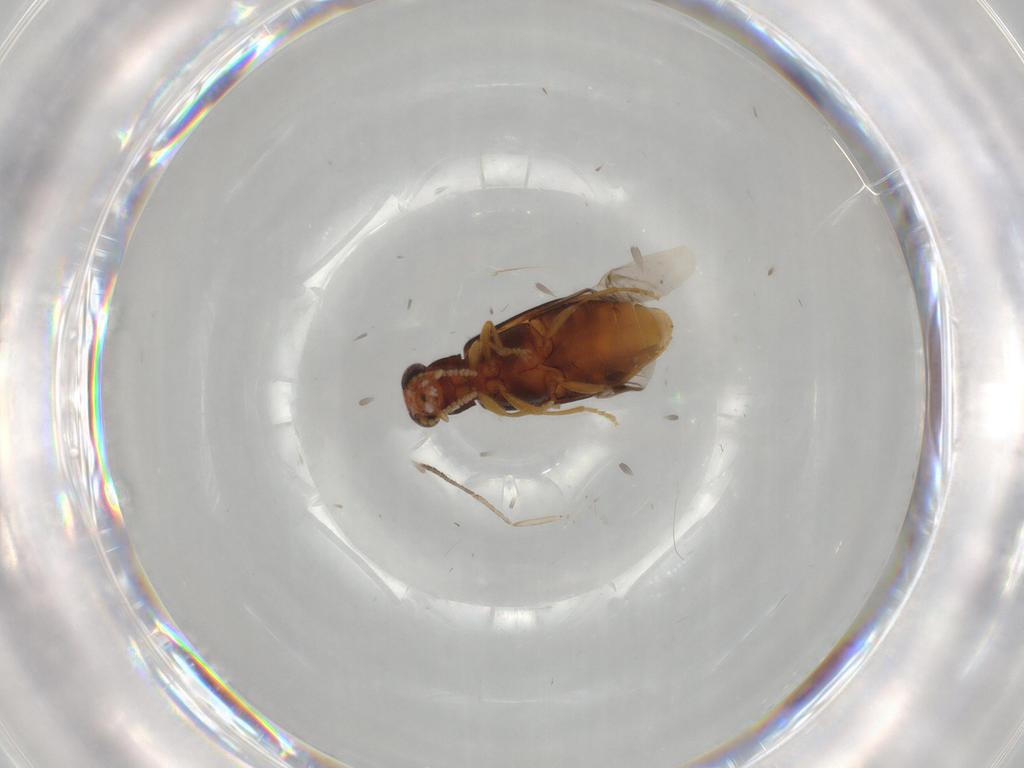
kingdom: Animalia
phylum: Arthropoda
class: Insecta
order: Coleoptera
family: Mycteridae
